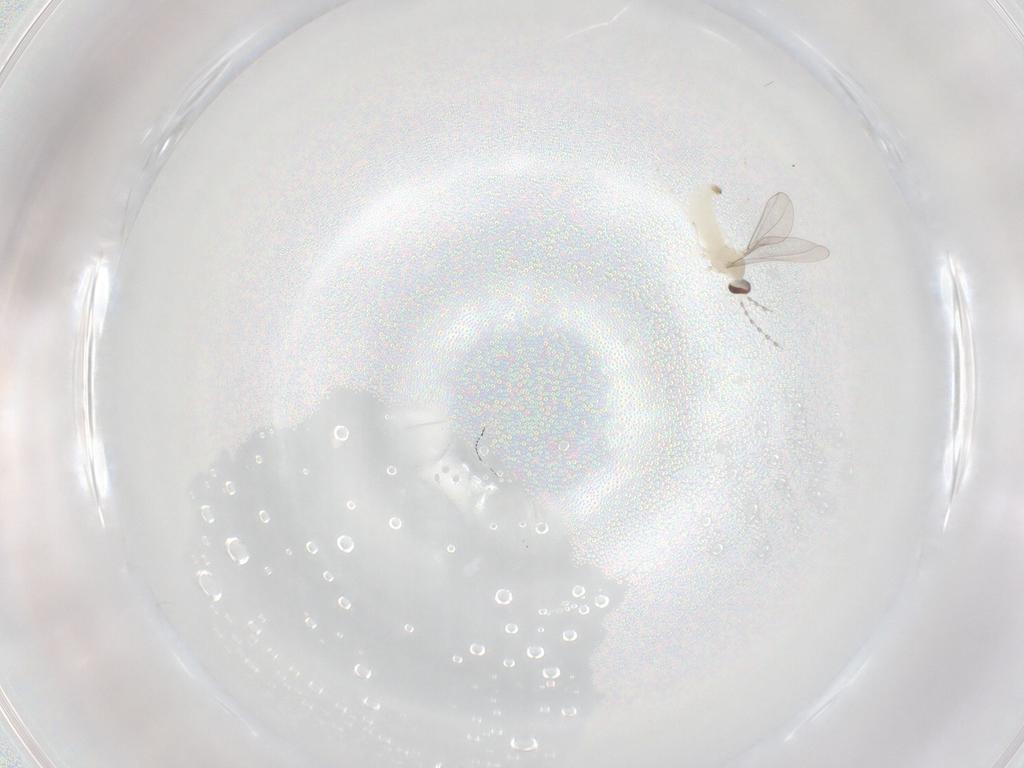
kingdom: Animalia
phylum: Arthropoda
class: Insecta
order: Diptera
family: Cecidomyiidae
